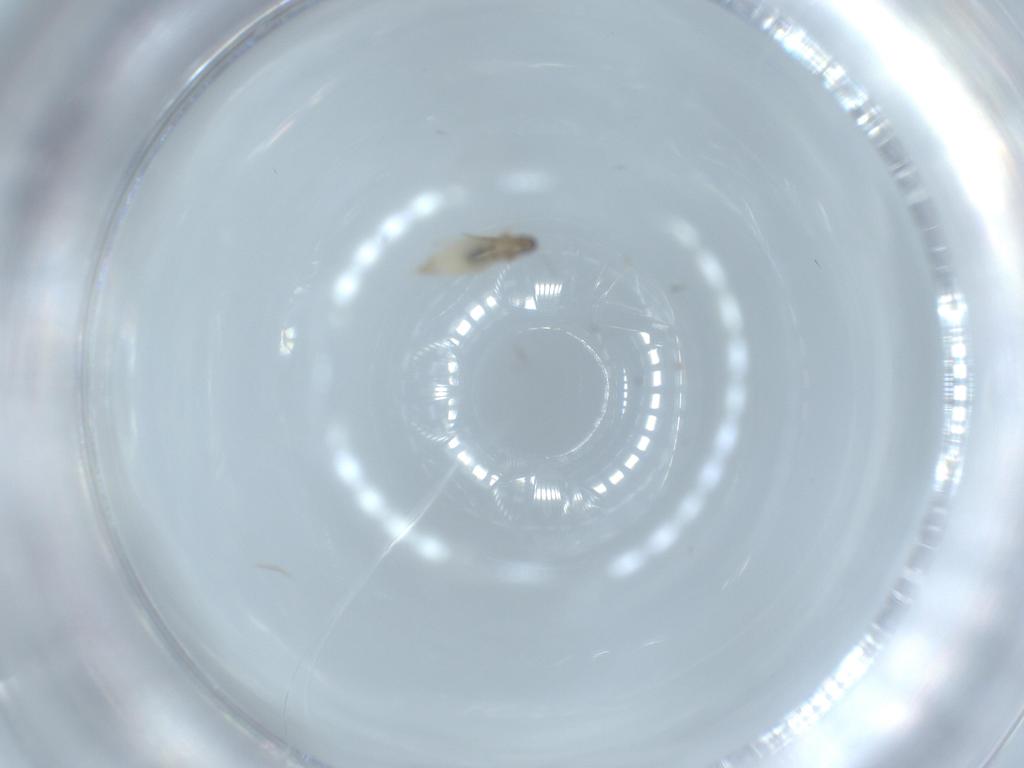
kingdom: Animalia
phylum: Arthropoda
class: Insecta
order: Diptera
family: Cecidomyiidae
